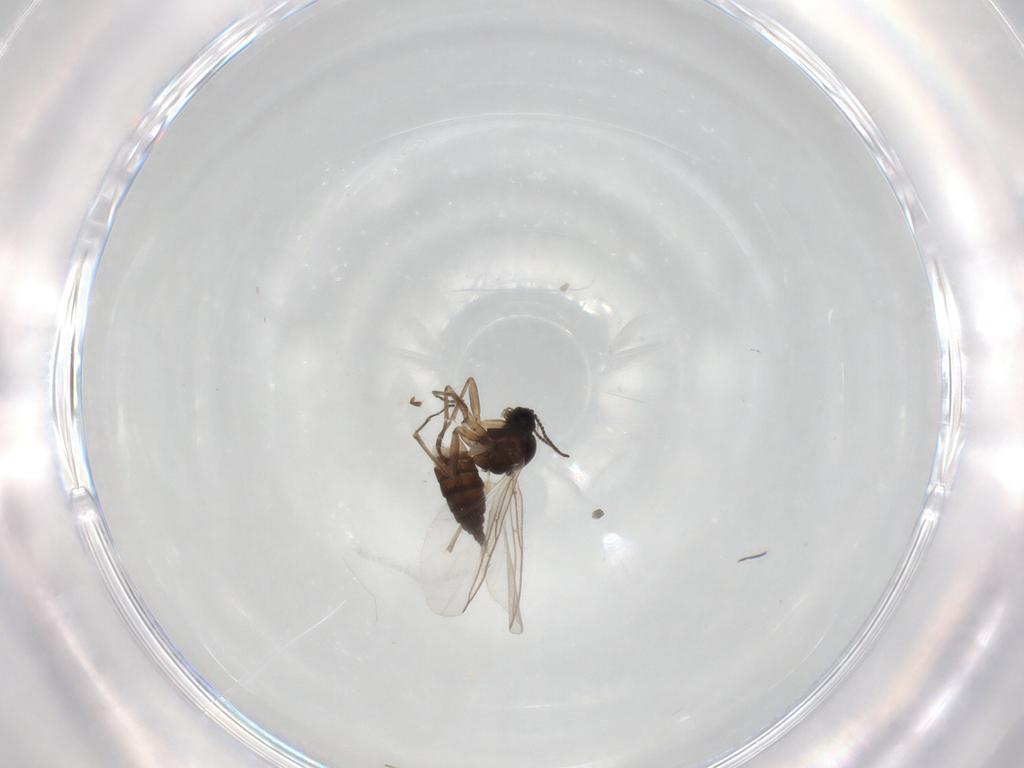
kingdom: Animalia
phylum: Arthropoda
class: Insecta
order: Diptera
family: Sciaridae
